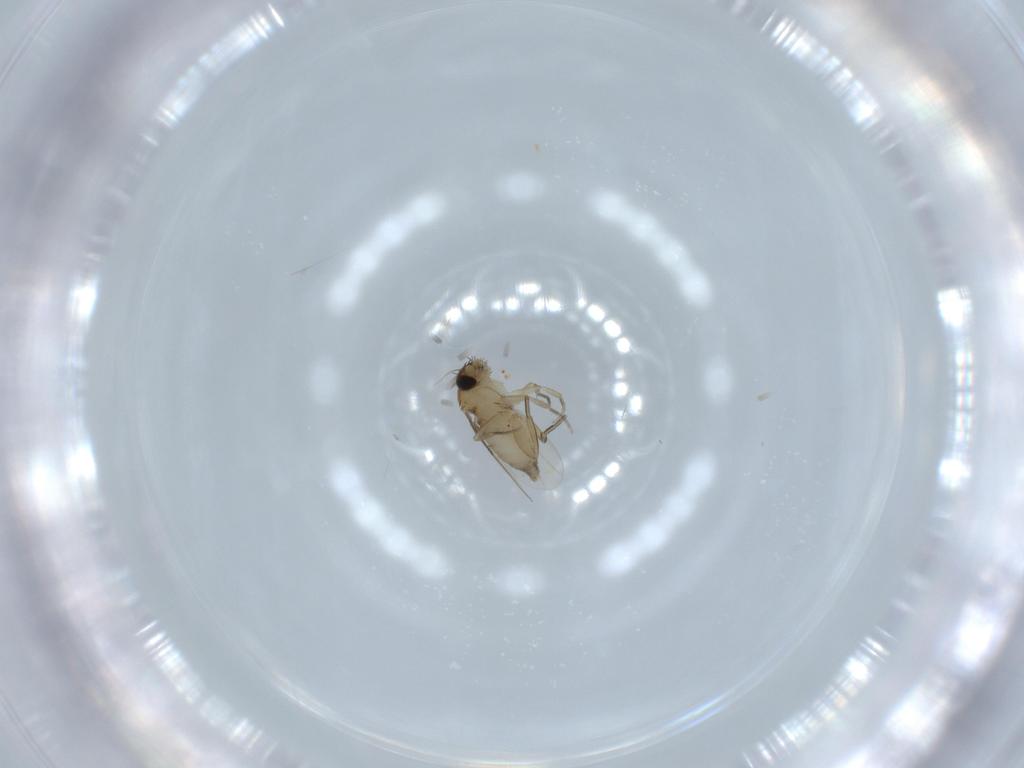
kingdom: Animalia
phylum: Arthropoda
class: Insecta
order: Diptera
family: Phoridae
